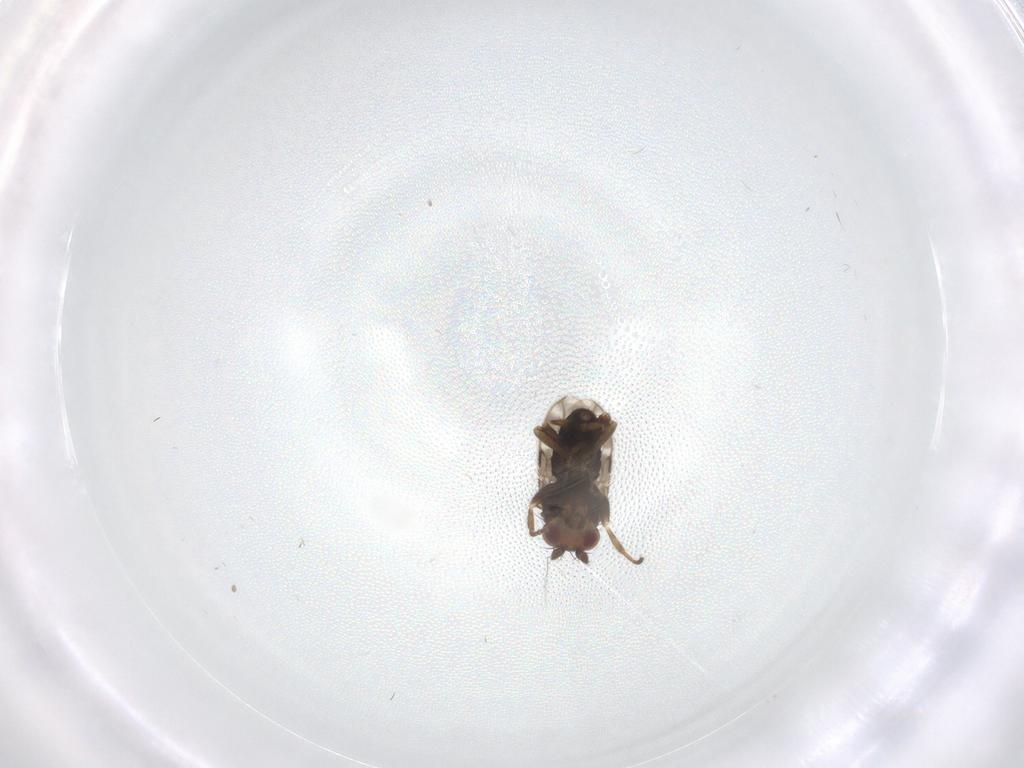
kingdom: Animalia
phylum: Arthropoda
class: Insecta
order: Diptera
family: Sphaeroceridae
